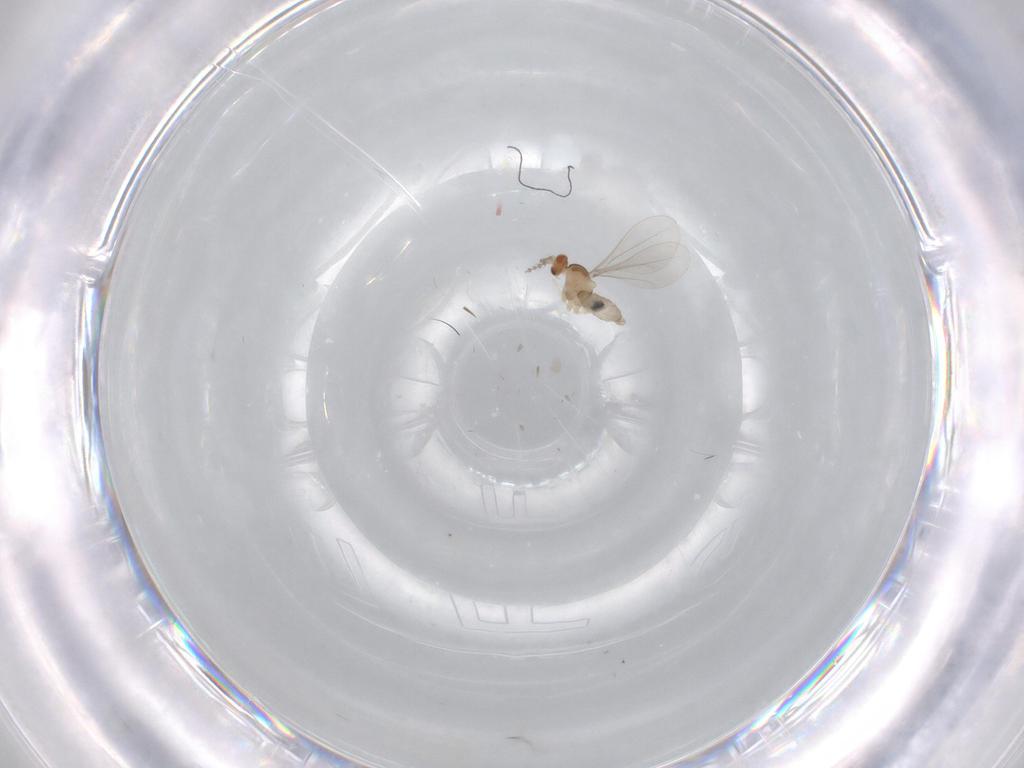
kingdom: Animalia
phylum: Arthropoda
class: Insecta
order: Diptera
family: Cecidomyiidae
